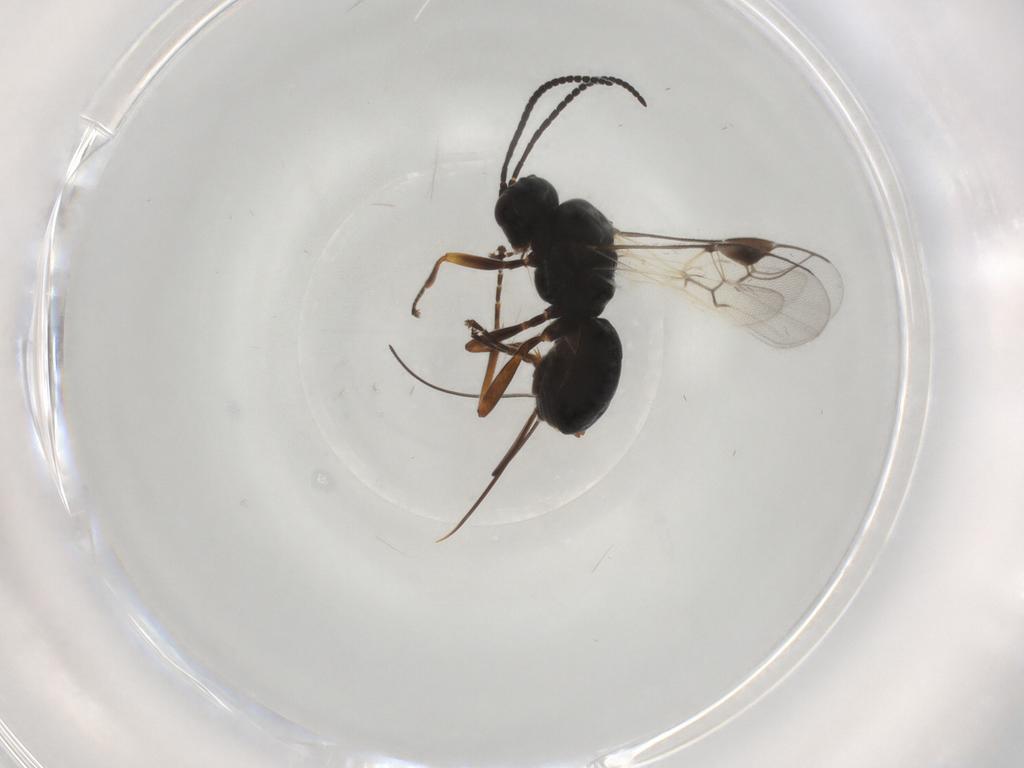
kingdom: Animalia
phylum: Arthropoda
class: Insecta
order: Hymenoptera
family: Braconidae
